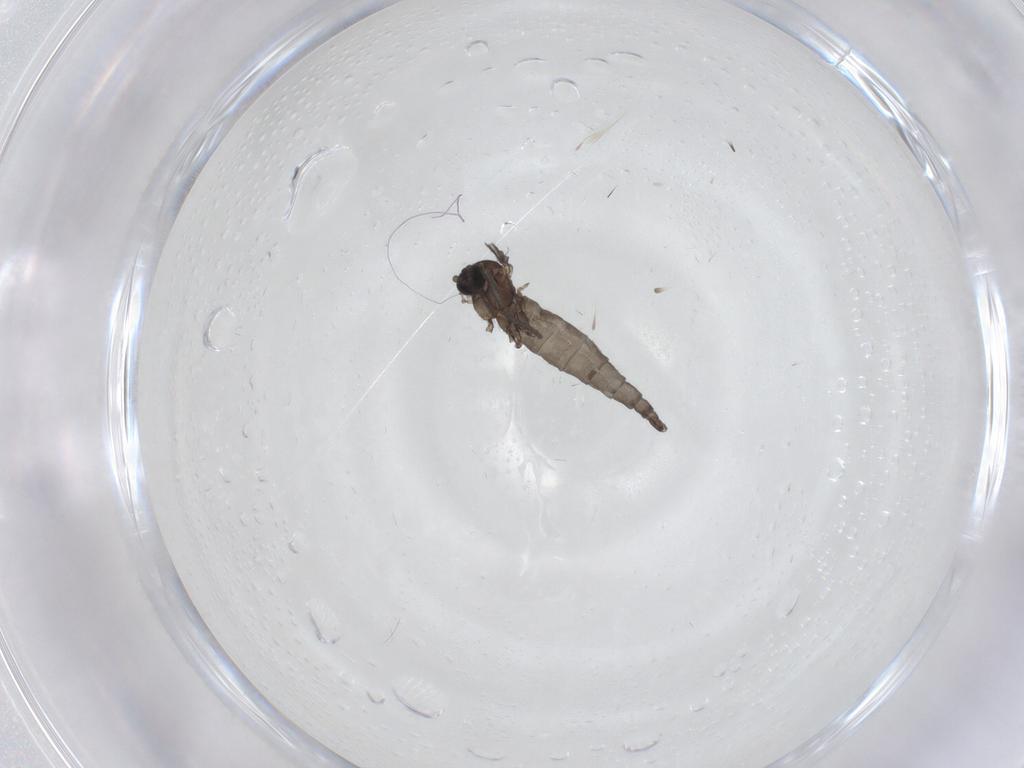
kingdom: Animalia
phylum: Arthropoda
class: Insecta
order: Diptera
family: Sciaridae
